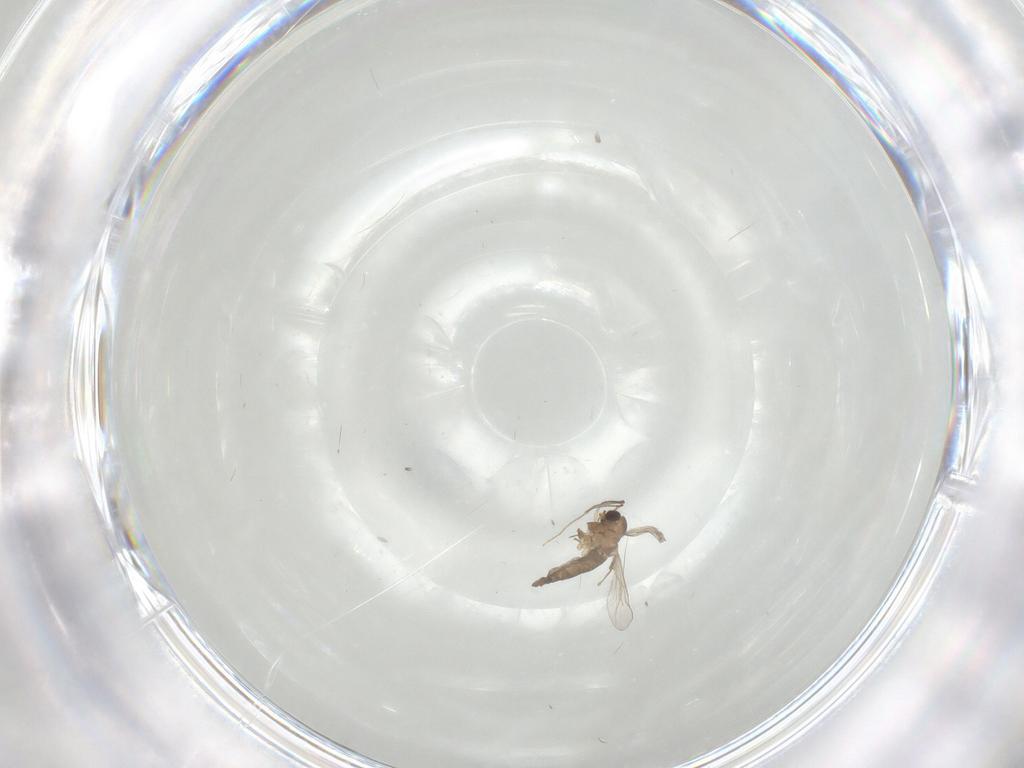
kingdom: Animalia
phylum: Arthropoda
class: Insecta
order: Diptera
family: Chironomidae
